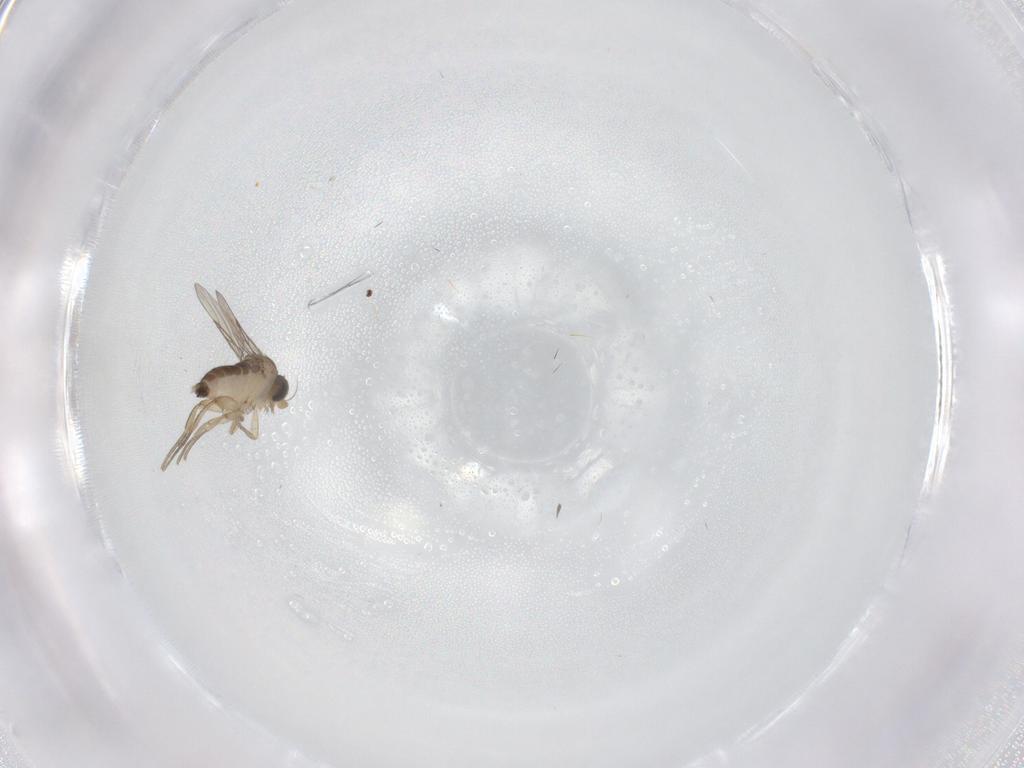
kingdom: Animalia
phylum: Arthropoda
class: Insecta
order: Diptera
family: Phoridae
